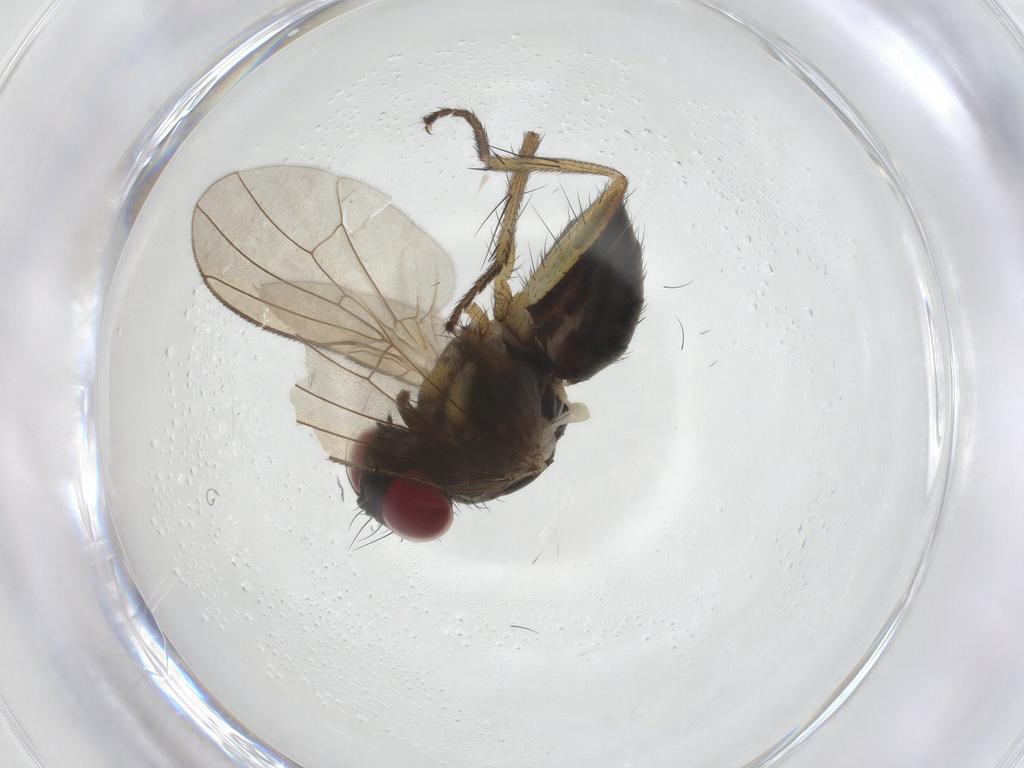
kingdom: Animalia
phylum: Arthropoda
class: Insecta
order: Diptera
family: Muscidae
